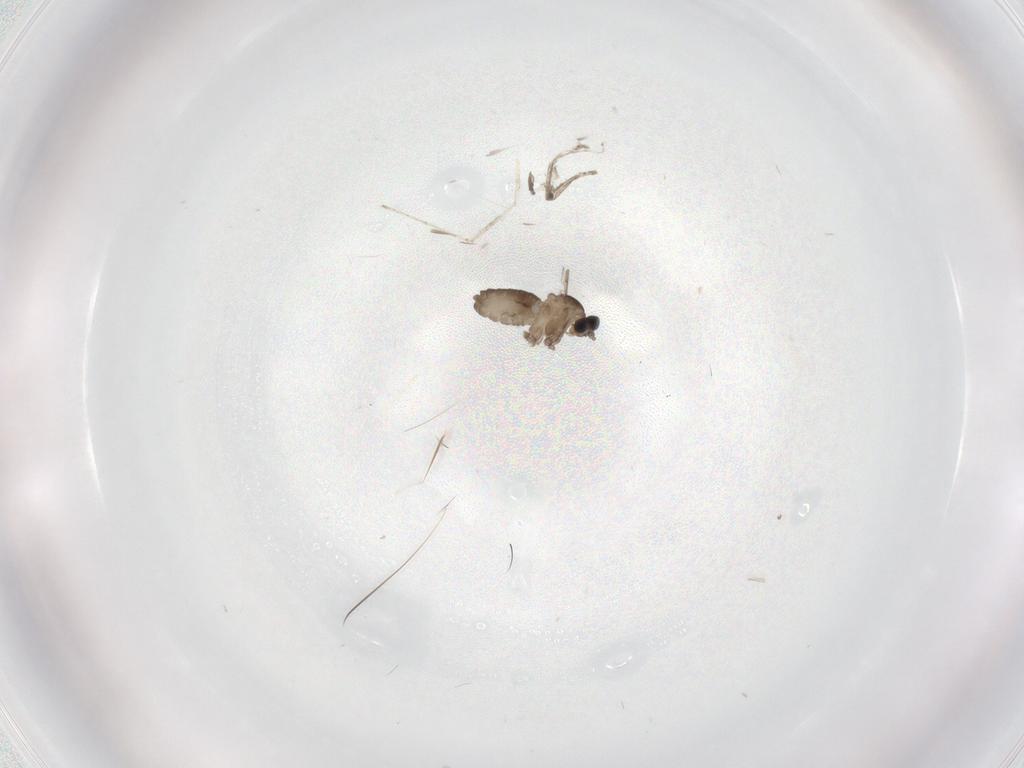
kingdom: Animalia
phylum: Arthropoda
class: Insecta
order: Diptera
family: Cecidomyiidae
